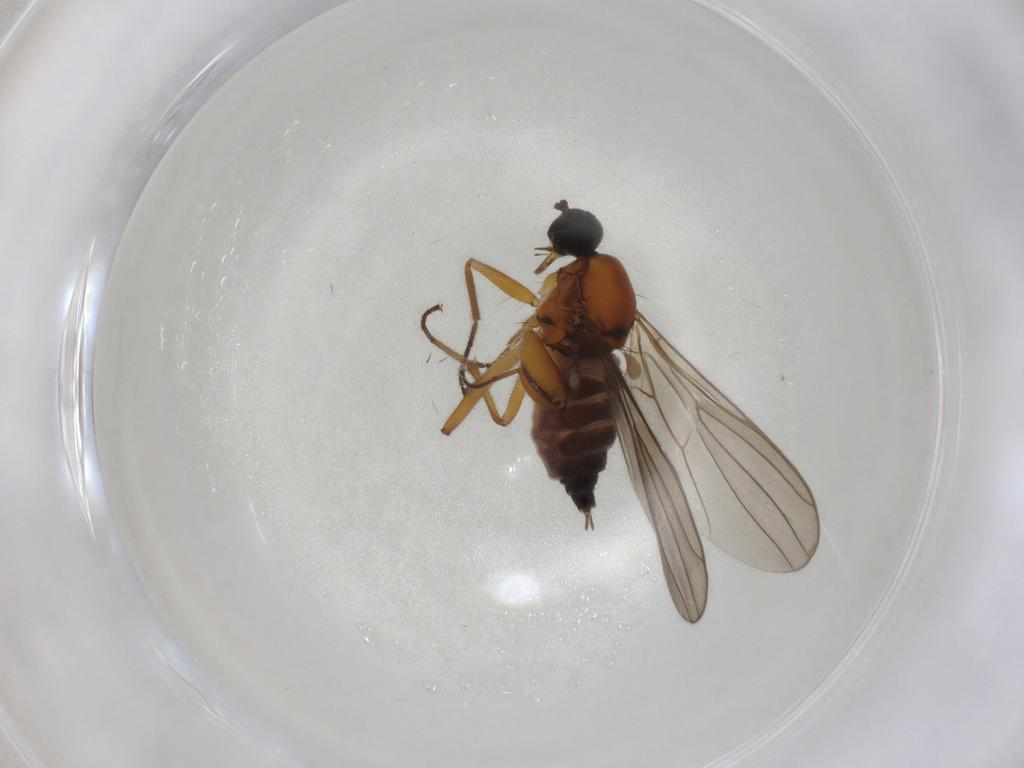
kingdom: Animalia
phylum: Arthropoda
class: Insecta
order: Diptera
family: Hybotidae
